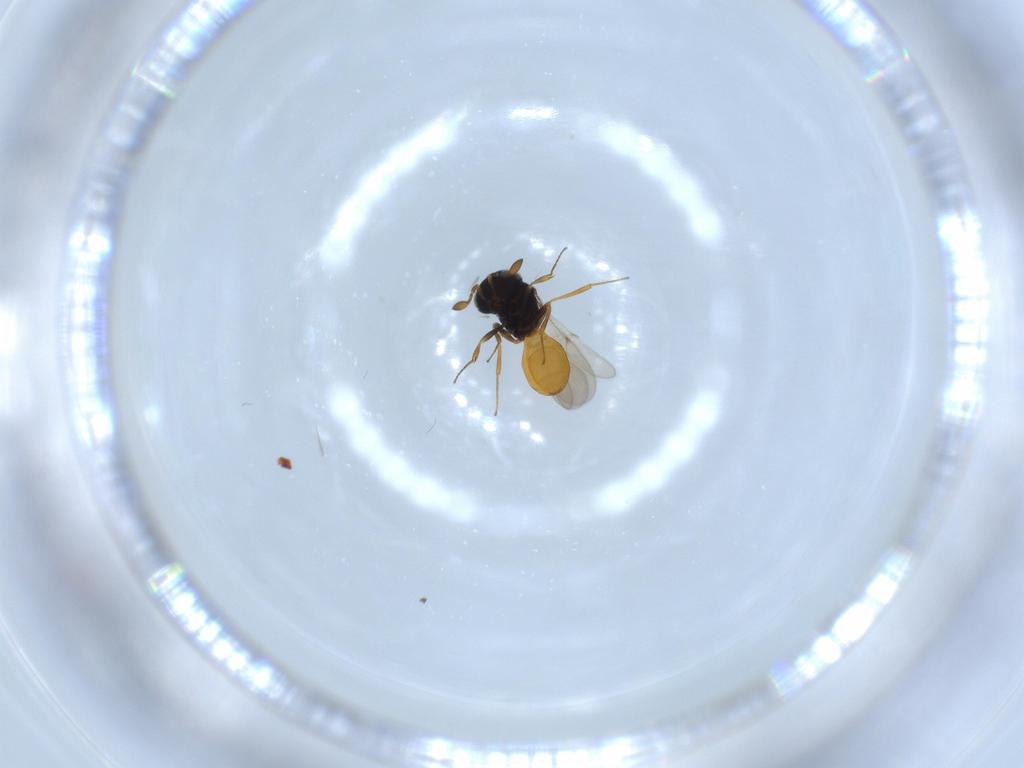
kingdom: Animalia
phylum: Arthropoda
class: Insecta
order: Hymenoptera
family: Scelionidae
